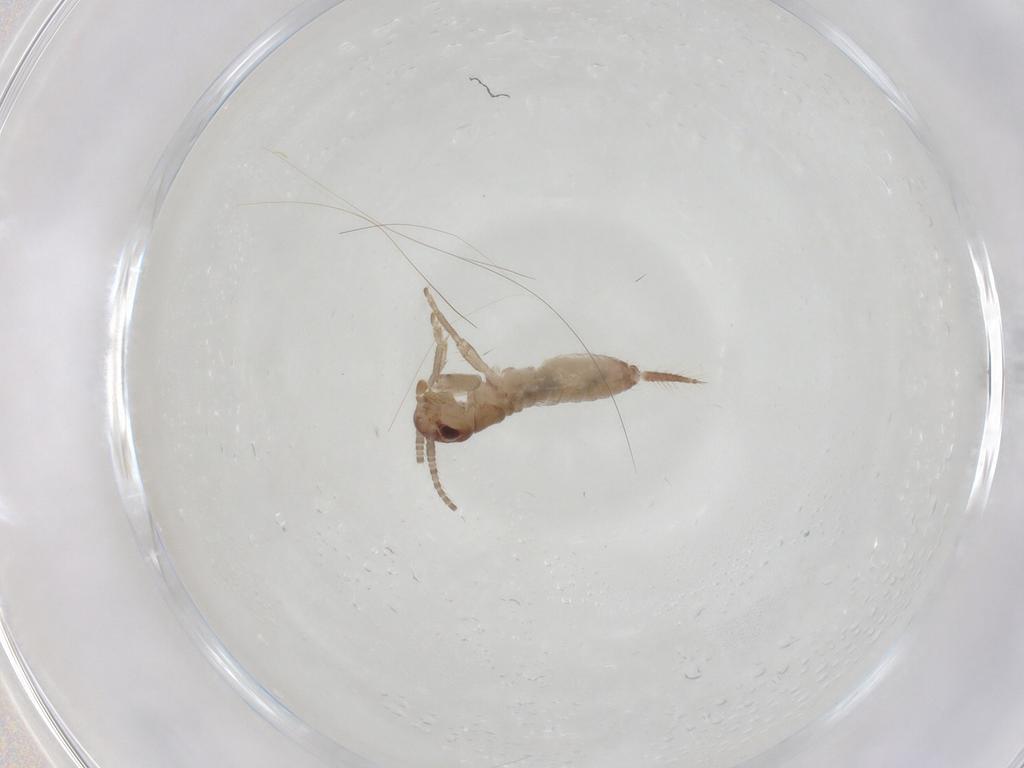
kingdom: Animalia
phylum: Arthropoda
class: Insecta
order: Orthoptera
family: Gryllidae
